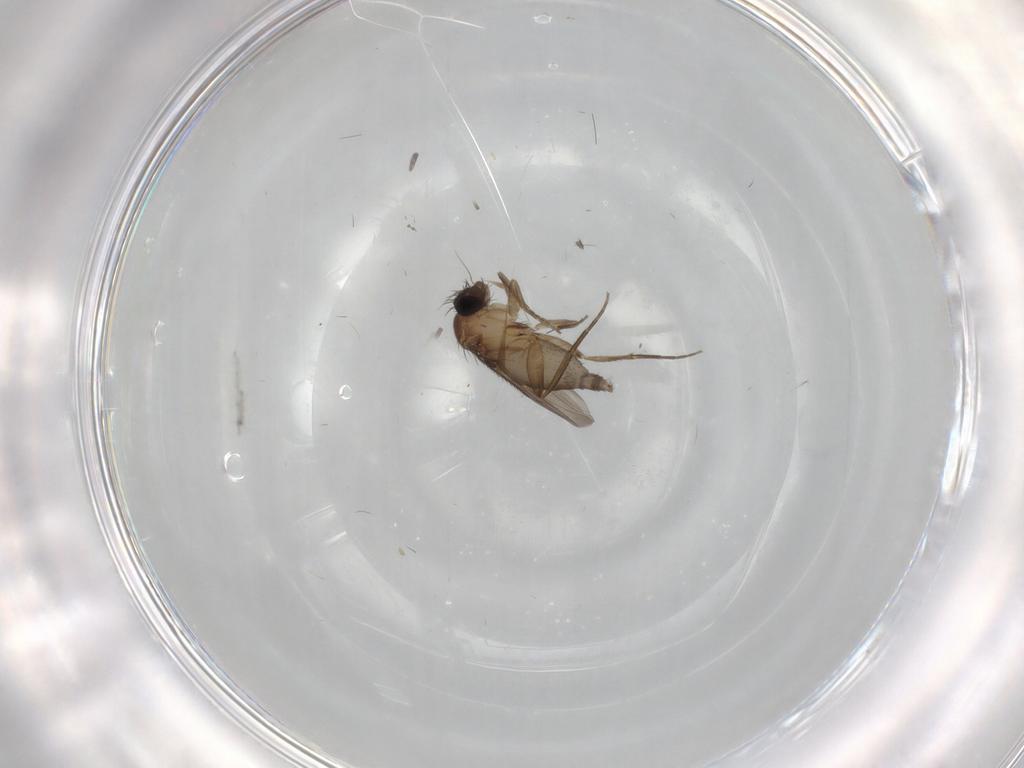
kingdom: Animalia
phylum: Arthropoda
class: Insecta
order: Diptera
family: Phoridae
